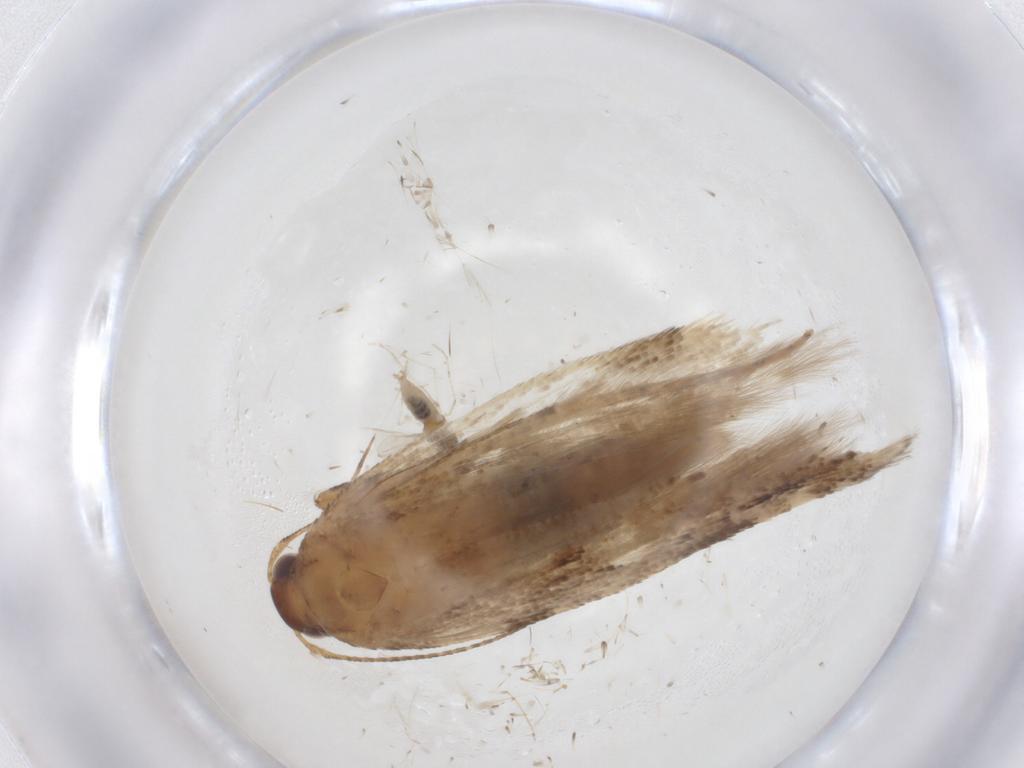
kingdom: Animalia
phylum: Arthropoda
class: Insecta
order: Lepidoptera
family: Gelechiidae
